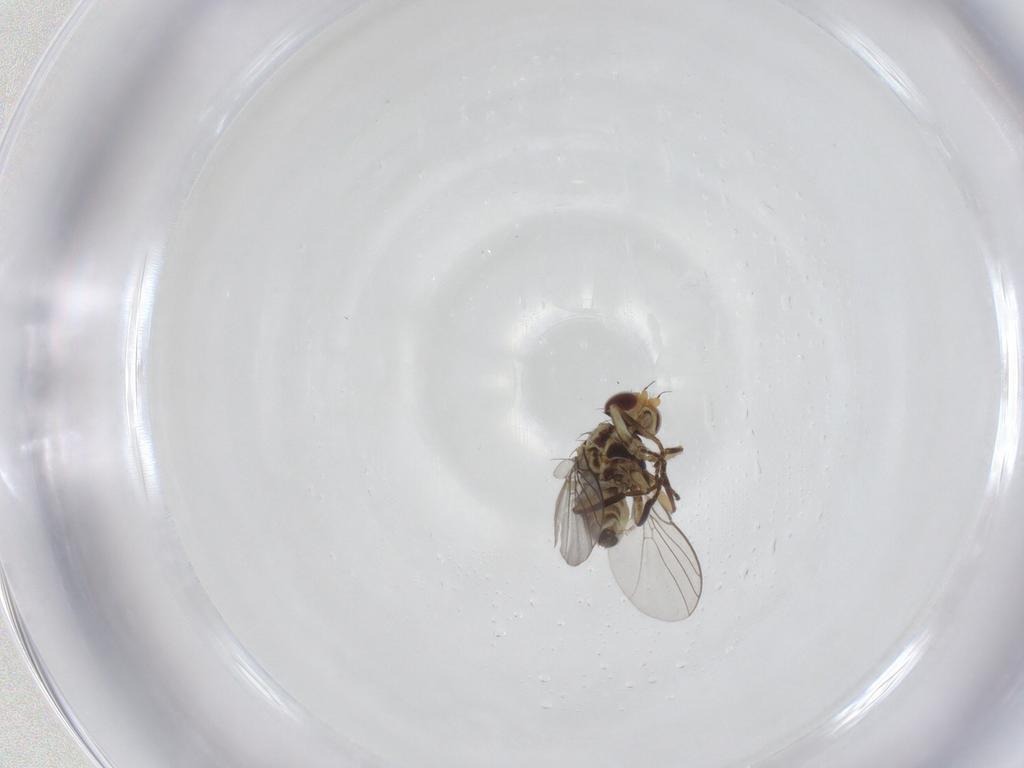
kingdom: Animalia
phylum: Arthropoda
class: Insecta
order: Diptera
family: Agromyzidae
